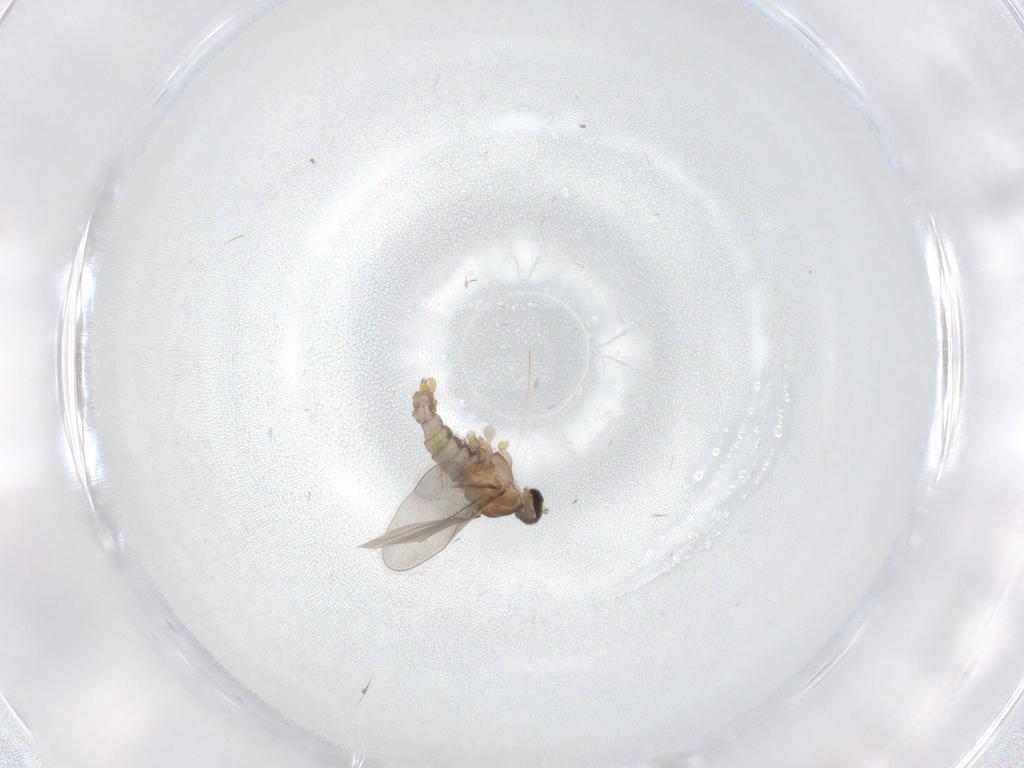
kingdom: Animalia
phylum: Arthropoda
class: Insecta
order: Diptera
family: Cecidomyiidae
